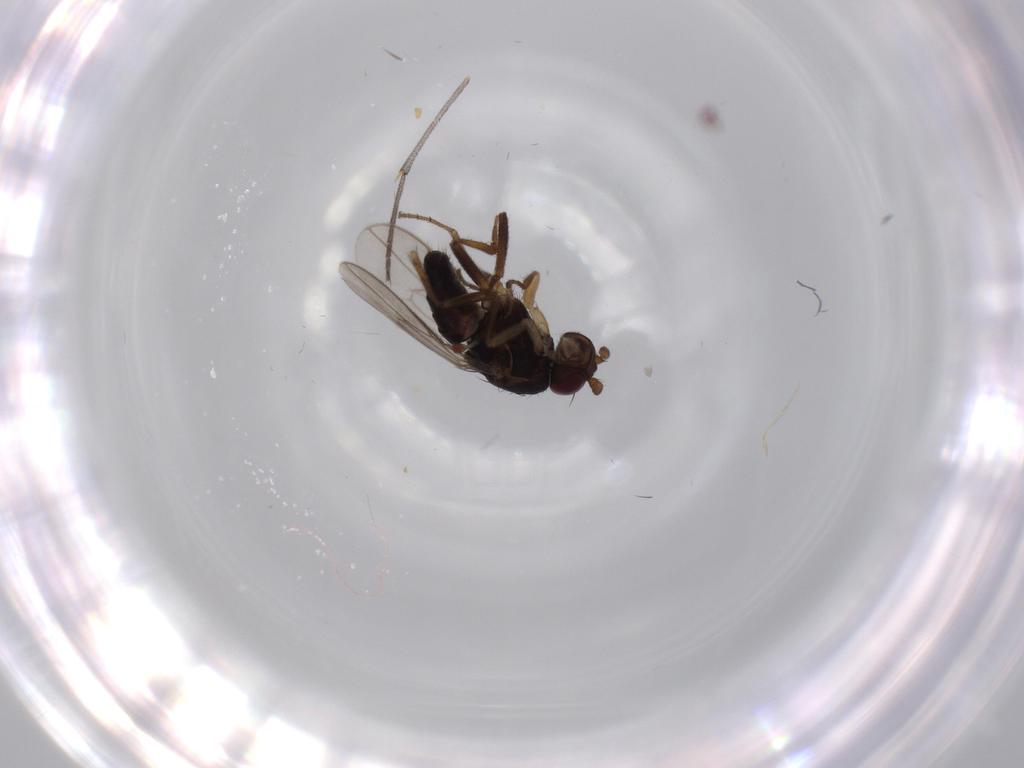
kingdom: Animalia
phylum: Arthropoda
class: Insecta
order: Diptera
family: Sphaeroceridae
